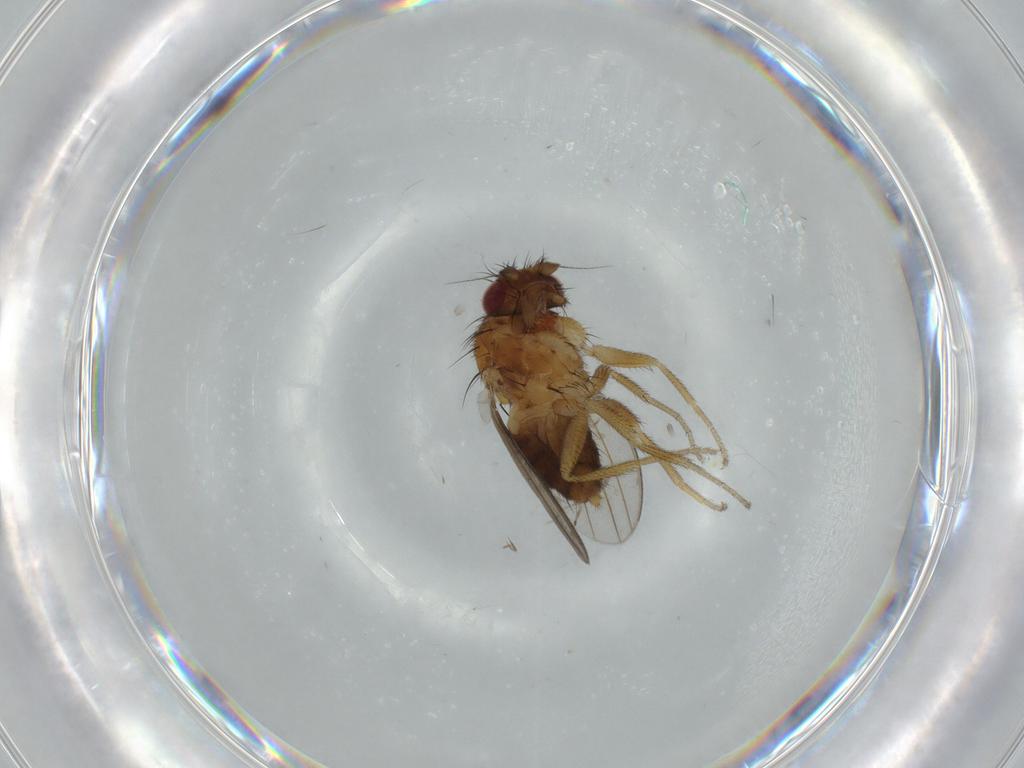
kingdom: Animalia
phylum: Arthropoda
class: Insecta
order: Diptera
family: Milichiidae
